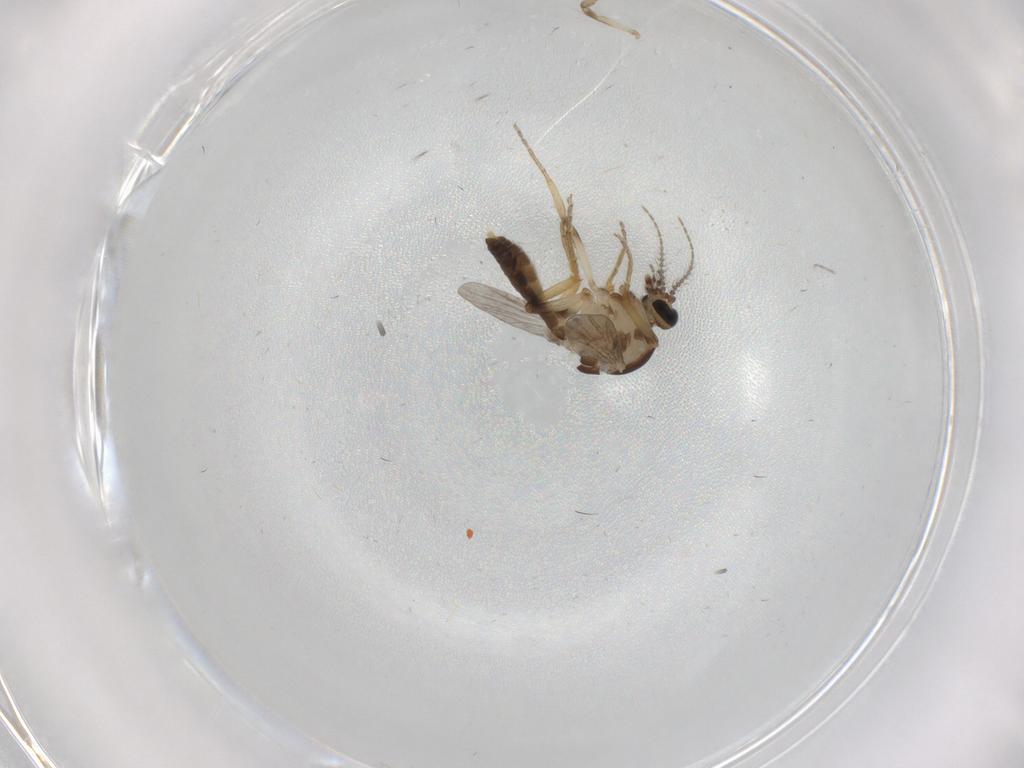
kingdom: Animalia
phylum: Arthropoda
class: Insecta
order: Diptera
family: Ceratopogonidae
